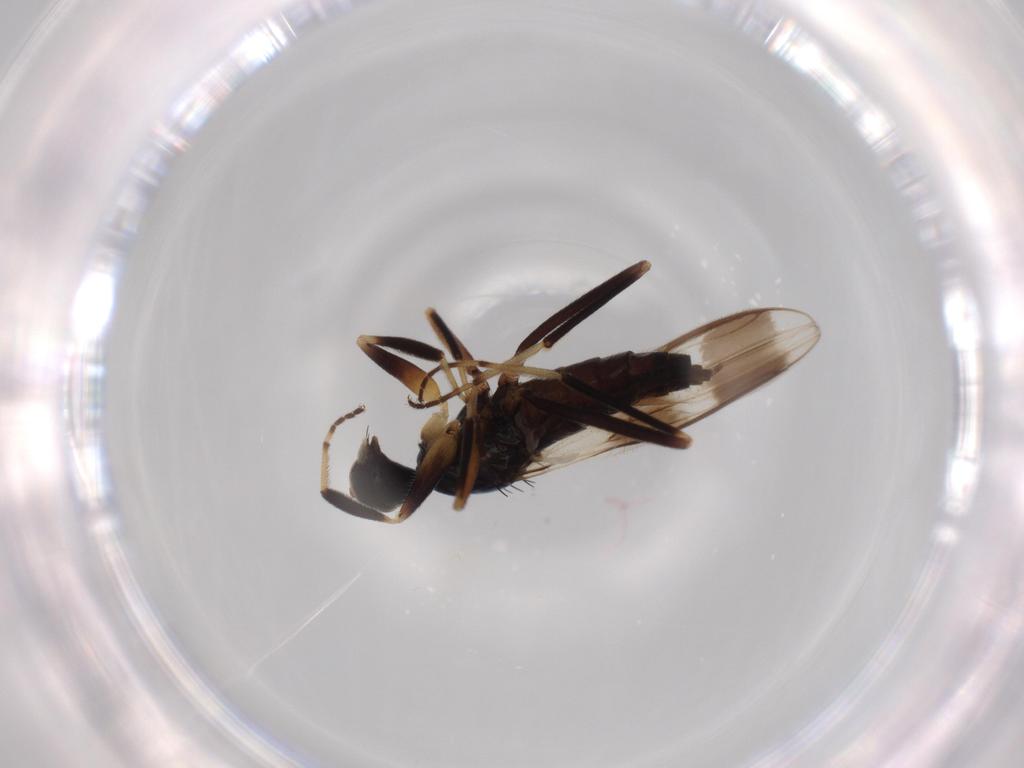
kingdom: Animalia
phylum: Arthropoda
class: Insecta
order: Diptera
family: Hybotidae
